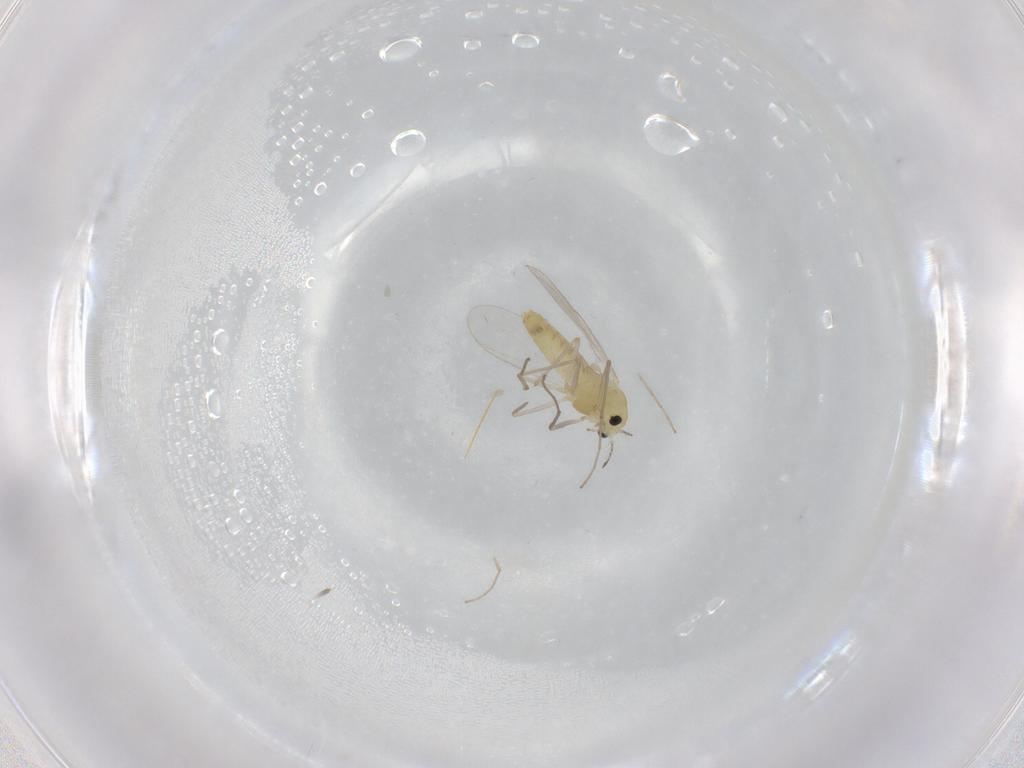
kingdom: Animalia
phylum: Arthropoda
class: Insecta
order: Diptera
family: Chironomidae
